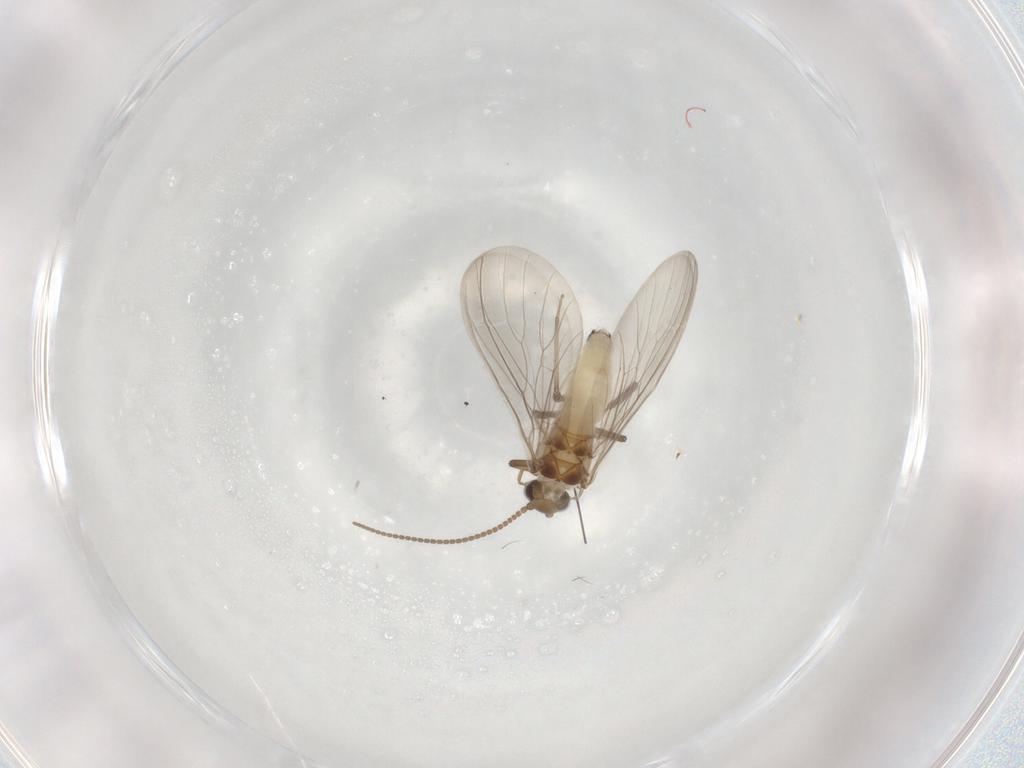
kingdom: Animalia
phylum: Arthropoda
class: Insecta
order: Neuroptera
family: Coniopterygidae
